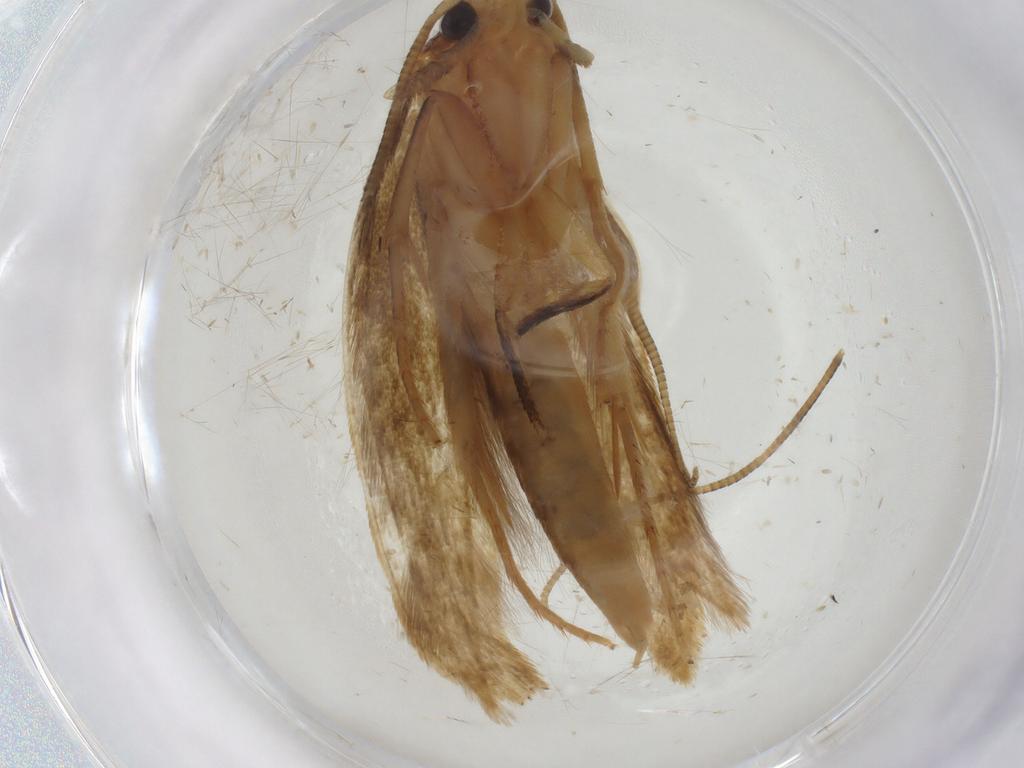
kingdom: Animalia
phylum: Arthropoda
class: Insecta
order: Lepidoptera
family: Tineidae
